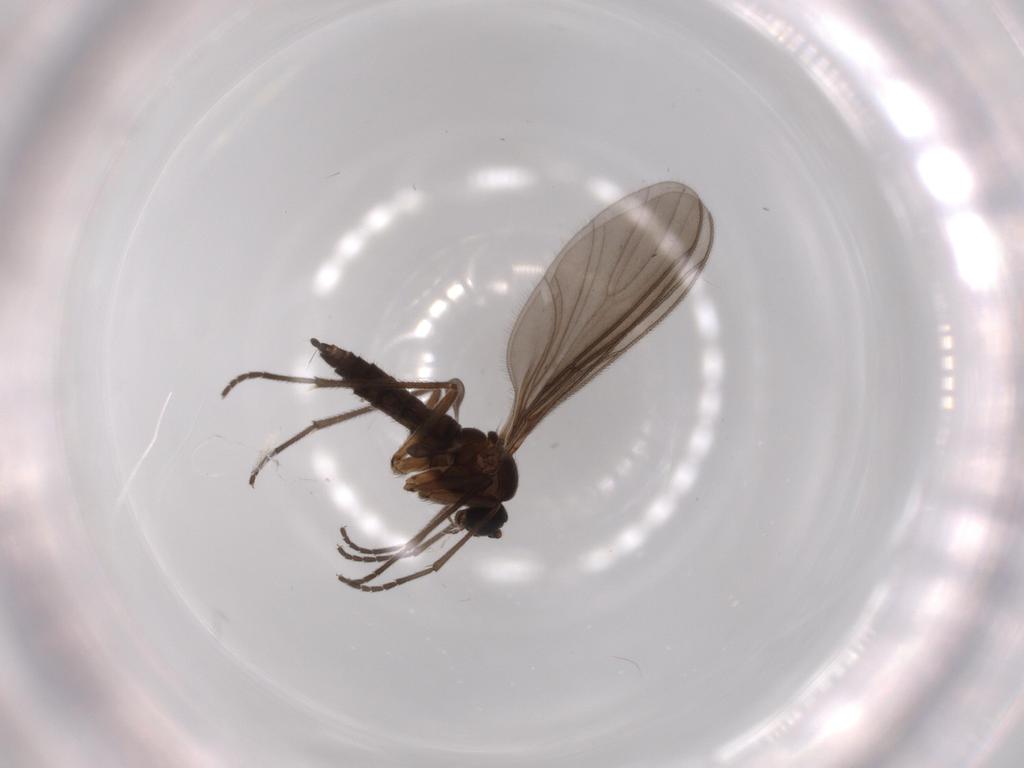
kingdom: Animalia
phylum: Arthropoda
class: Insecta
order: Diptera
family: Sciaridae
